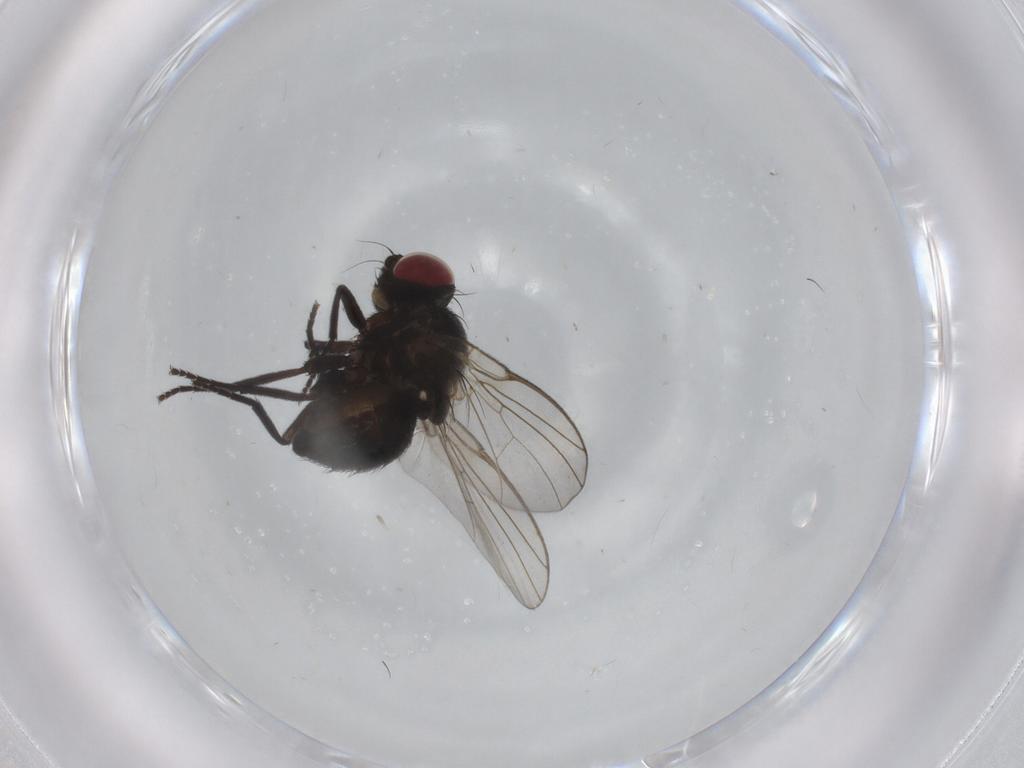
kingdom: Animalia
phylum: Arthropoda
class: Insecta
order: Diptera
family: Agromyzidae
